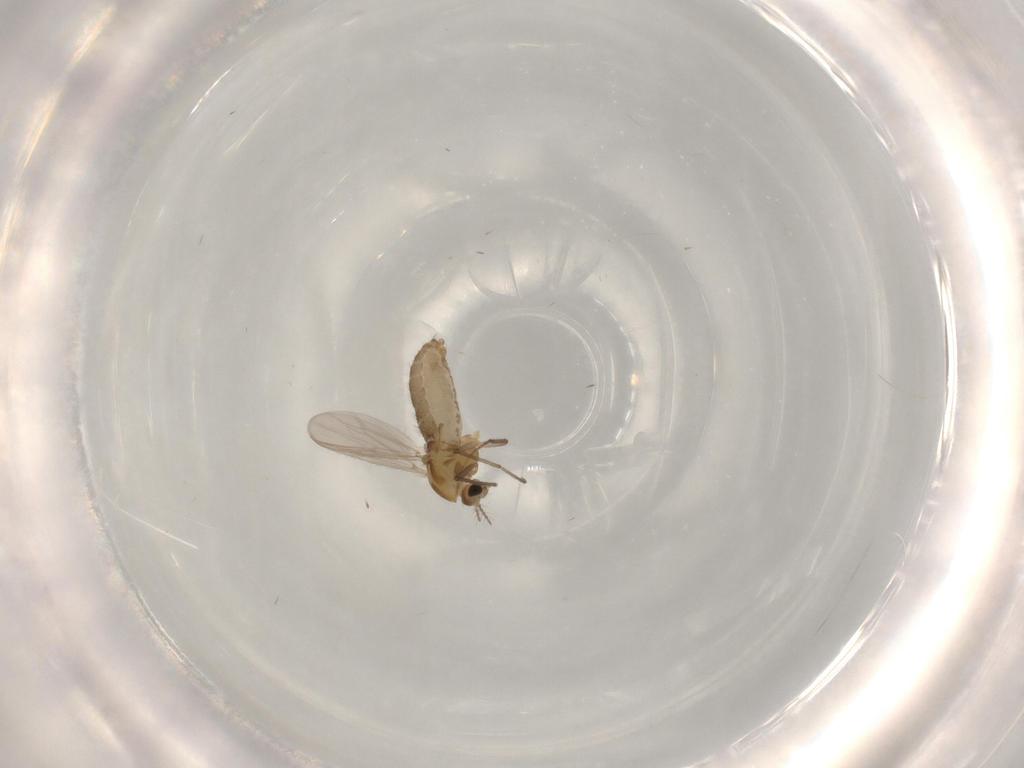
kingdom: Animalia
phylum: Arthropoda
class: Insecta
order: Diptera
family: Chironomidae
